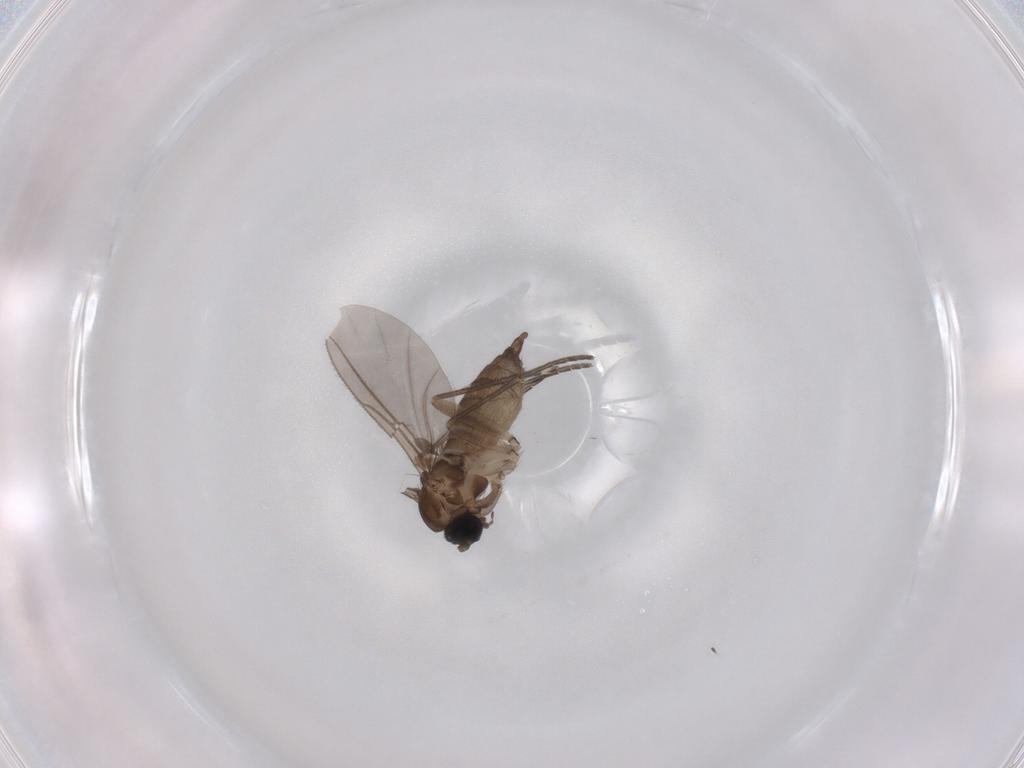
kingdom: Animalia
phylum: Arthropoda
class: Insecta
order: Diptera
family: Sciaridae
